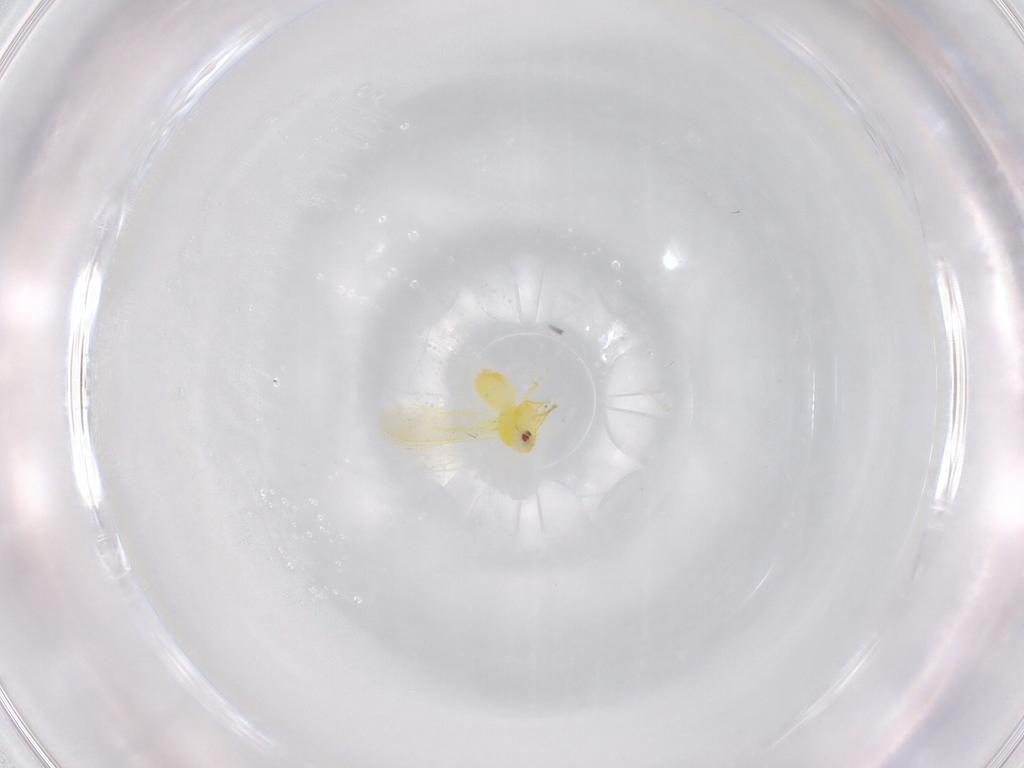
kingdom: Animalia
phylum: Arthropoda
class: Insecta
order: Hemiptera
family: Aleyrodidae
